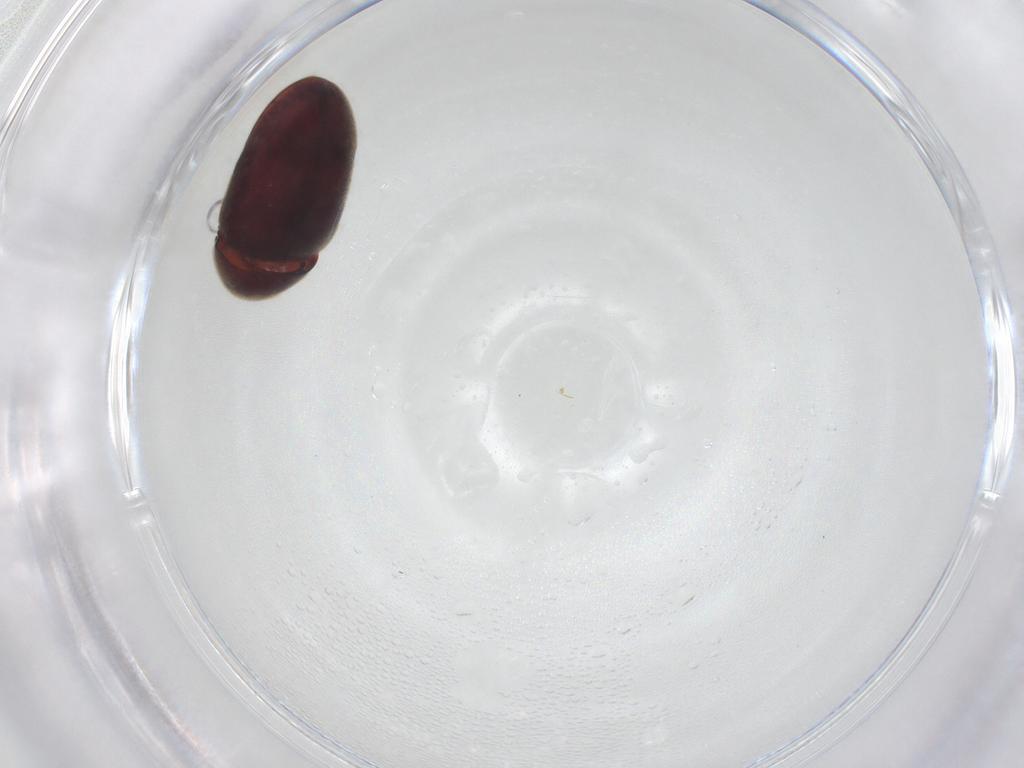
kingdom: Animalia
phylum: Arthropoda
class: Insecta
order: Coleoptera
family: Ptinidae
